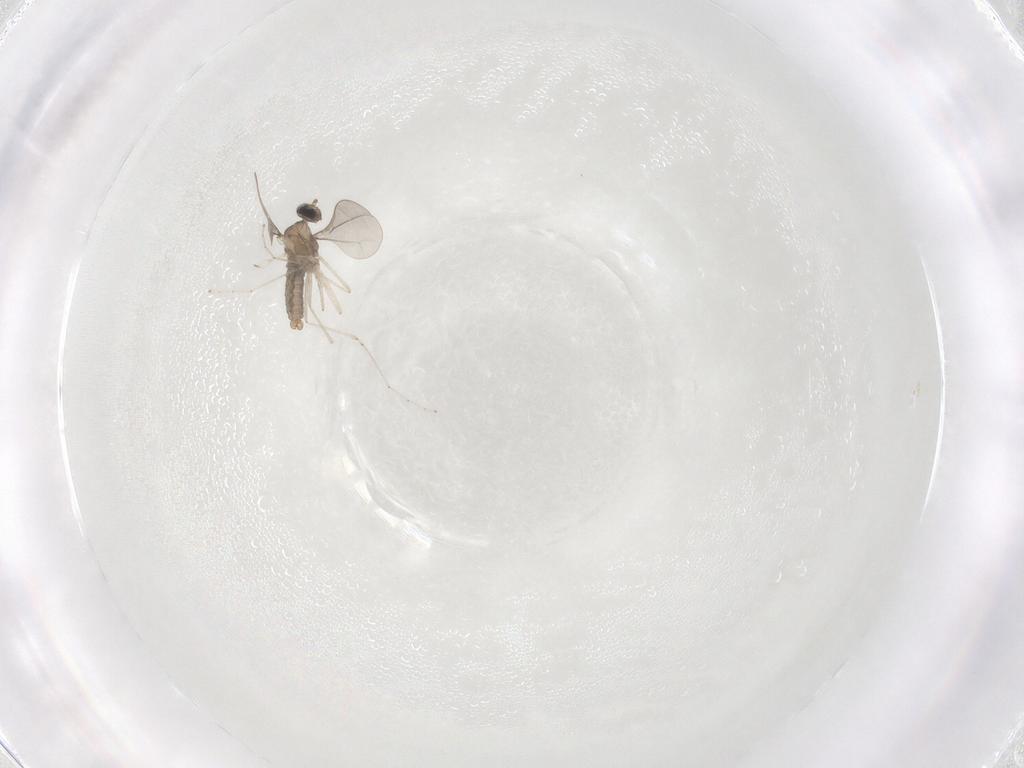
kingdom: Animalia
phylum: Arthropoda
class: Insecta
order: Diptera
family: Cecidomyiidae
